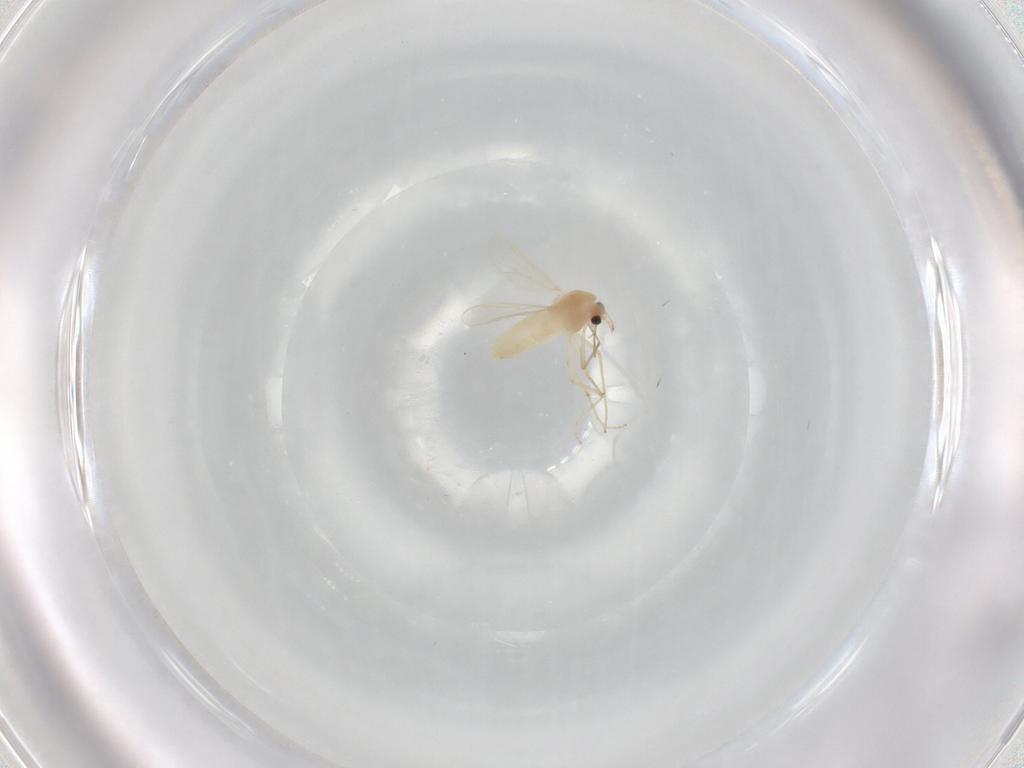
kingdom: Animalia
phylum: Arthropoda
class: Insecta
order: Diptera
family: Chironomidae
